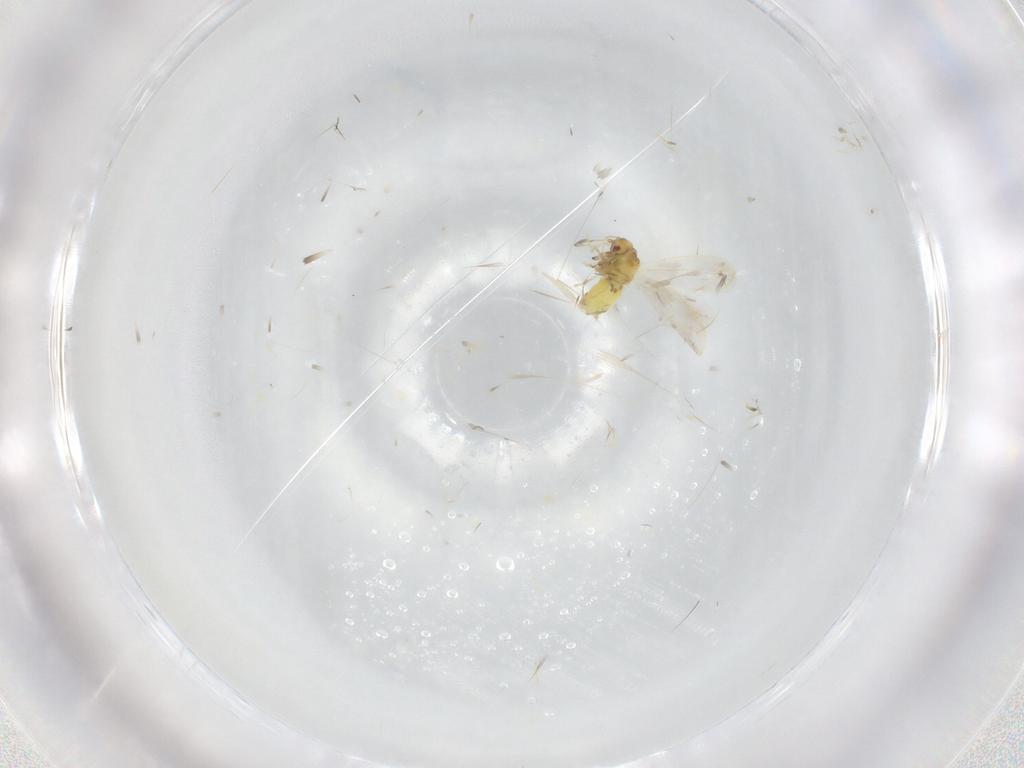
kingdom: Animalia
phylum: Arthropoda
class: Insecta
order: Hemiptera
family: Aleyrodidae
